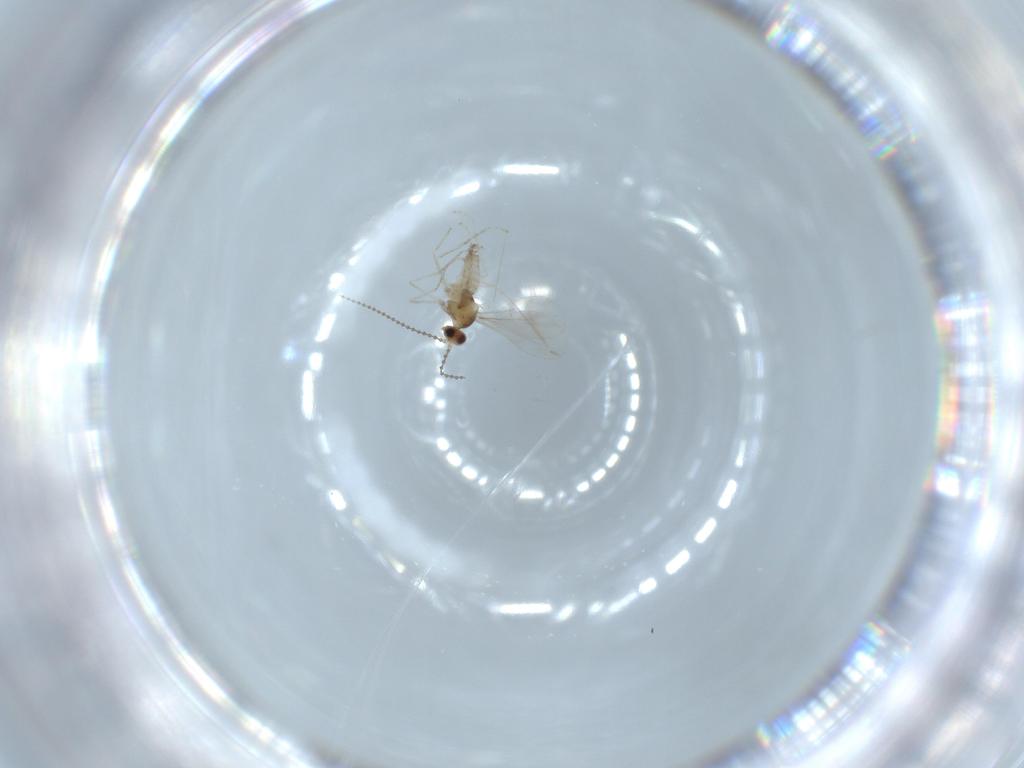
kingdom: Animalia
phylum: Arthropoda
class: Insecta
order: Diptera
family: Cecidomyiidae
